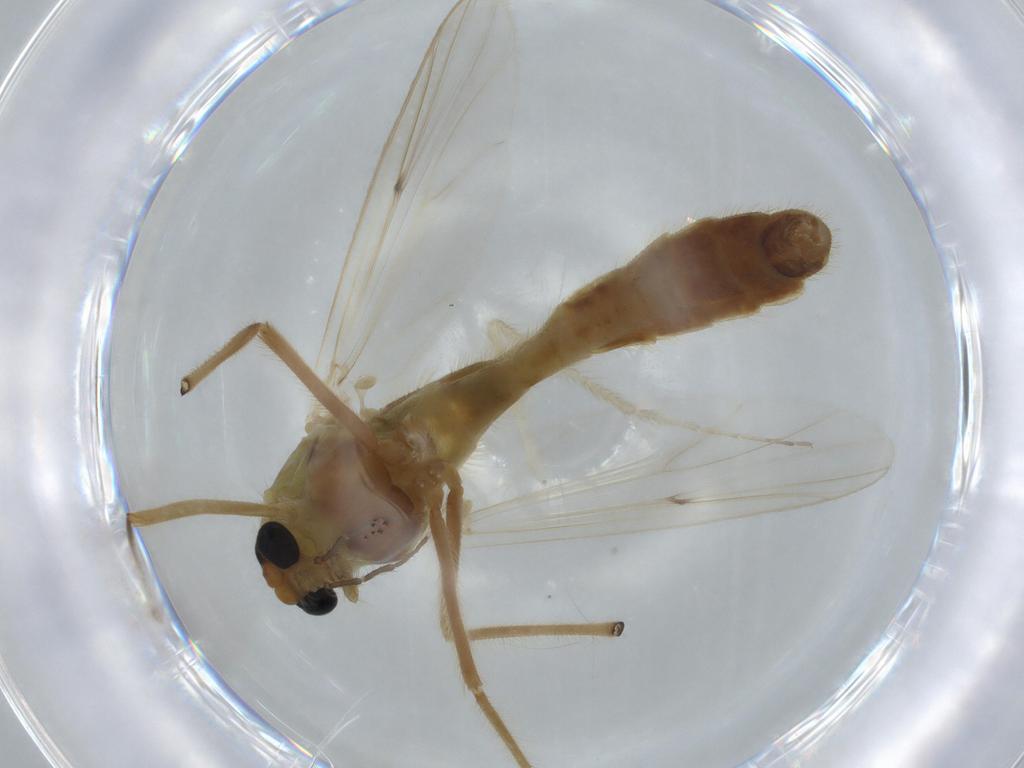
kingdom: Animalia
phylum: Arthropoda
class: Insecta
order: Diptera
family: Chironomidae
